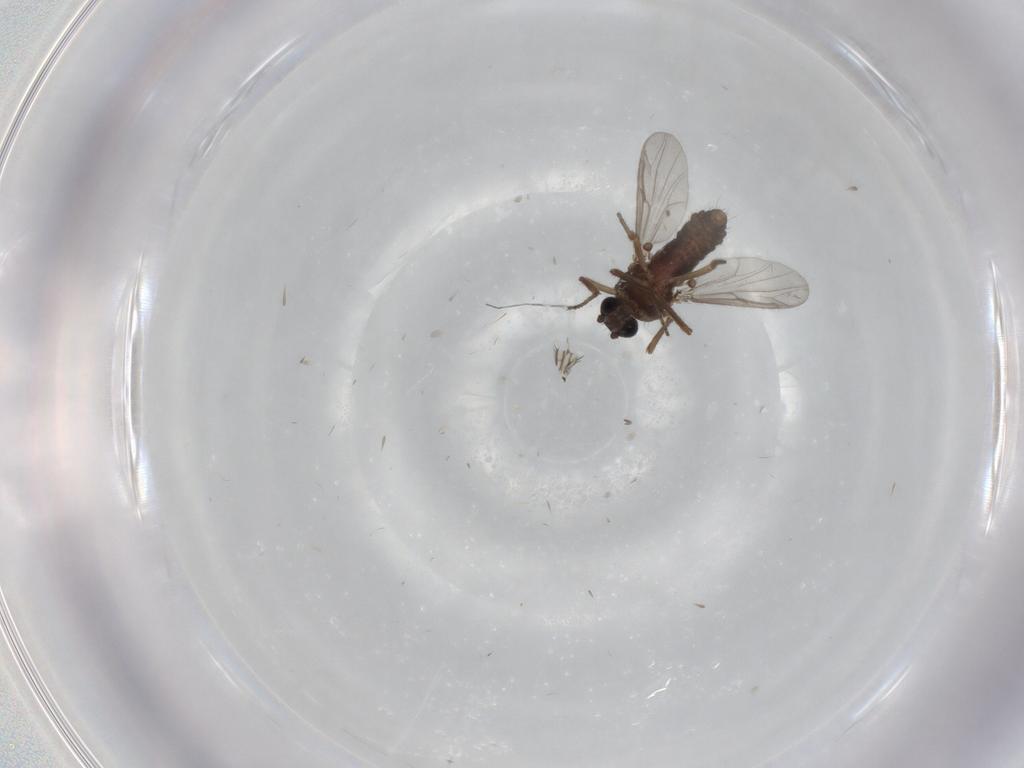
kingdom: Animalia
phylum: Arthropoda
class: Insecta
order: Diptera
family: Ceratopogonidae
